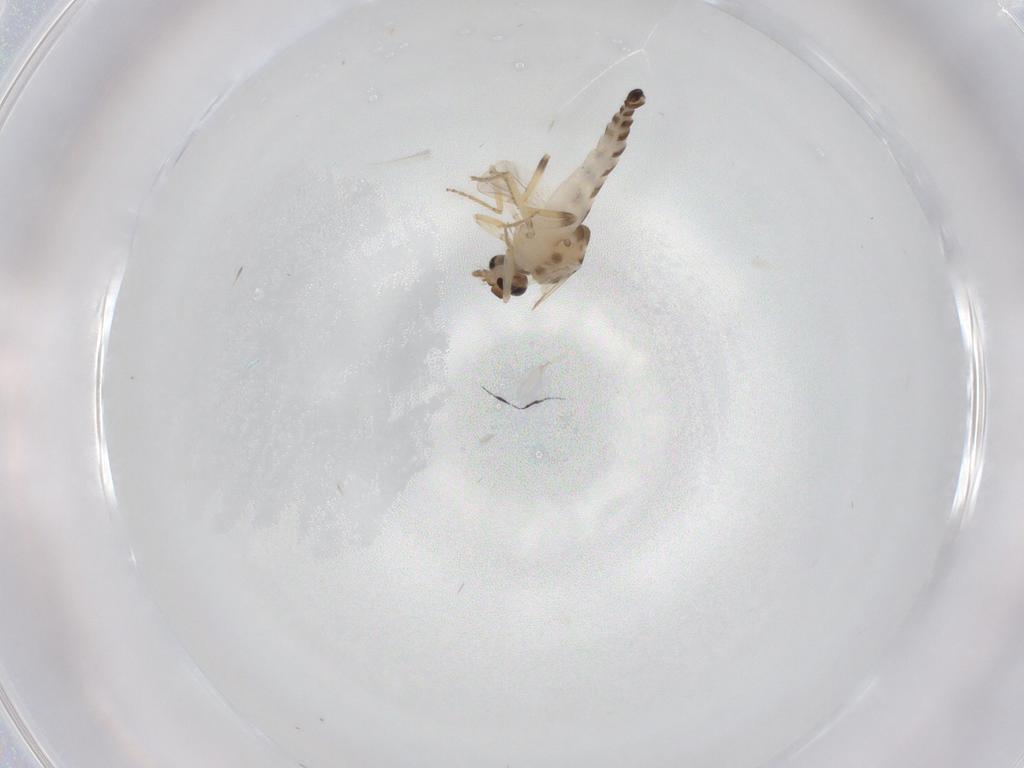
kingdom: Animalia
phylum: Arthropoda
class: Insecta
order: Diptera
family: Ceratopogonidae
